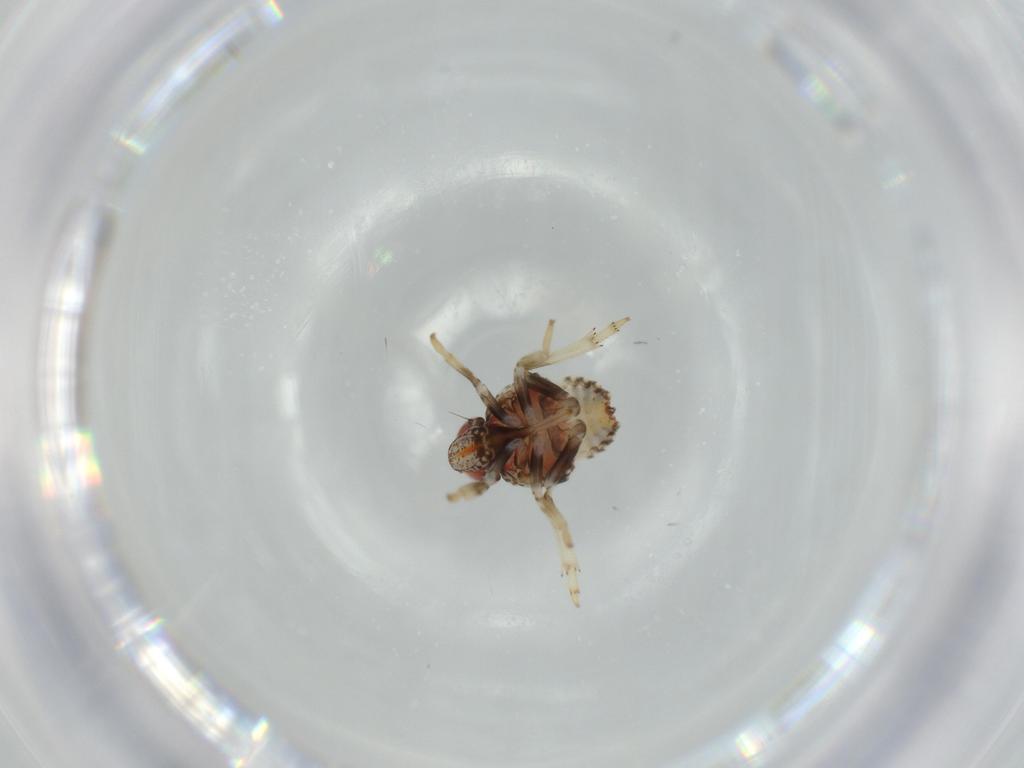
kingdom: Animalia
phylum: Arthropoda
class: Insecta
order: Hemiptera
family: Issidae
